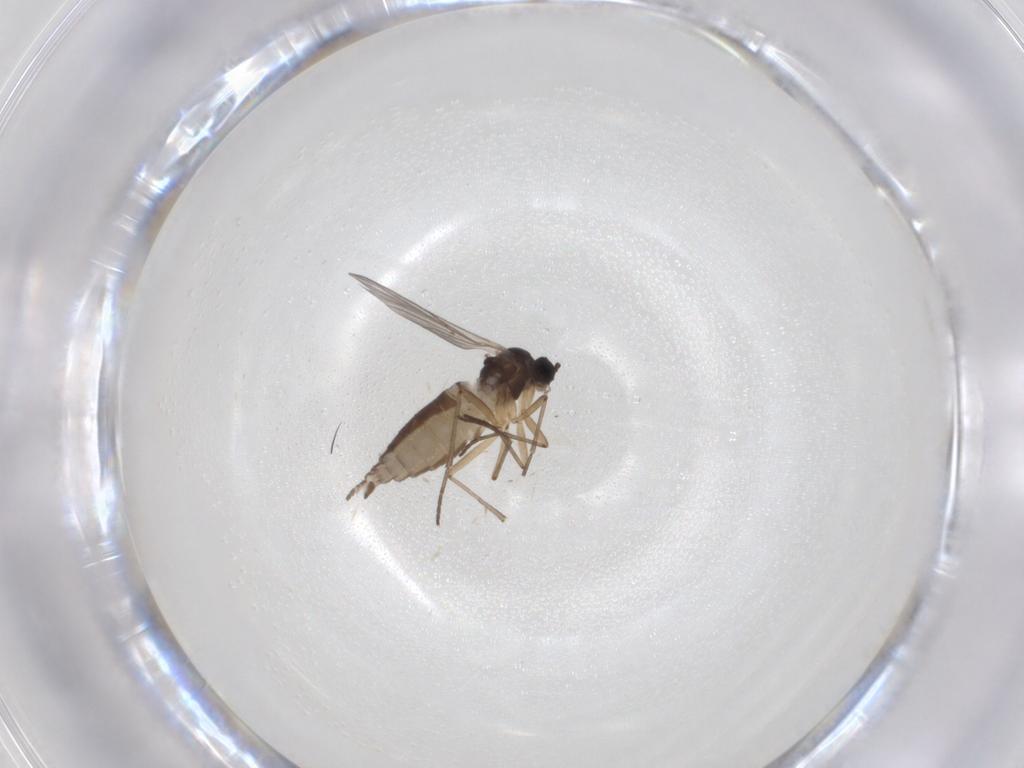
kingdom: Animalia
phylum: Arthropoda
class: Insecta
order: Diptera
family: Sciaridae
